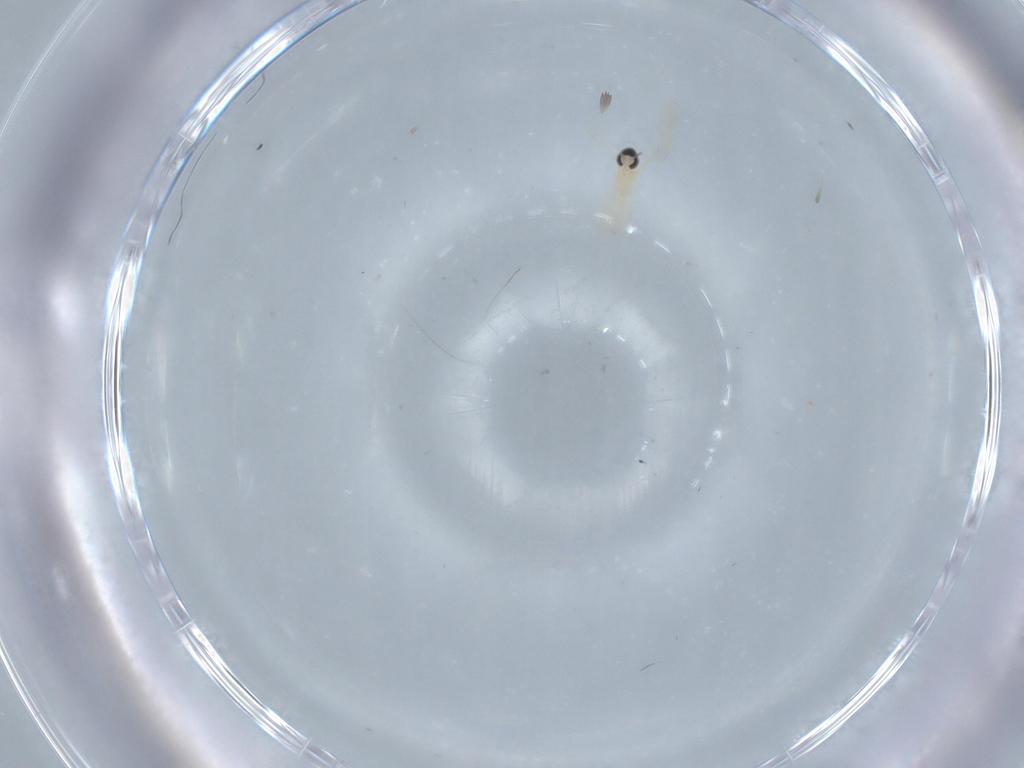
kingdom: Animalia
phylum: Arthropoda
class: Insecta
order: Diptera
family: Cecidomyiidae
